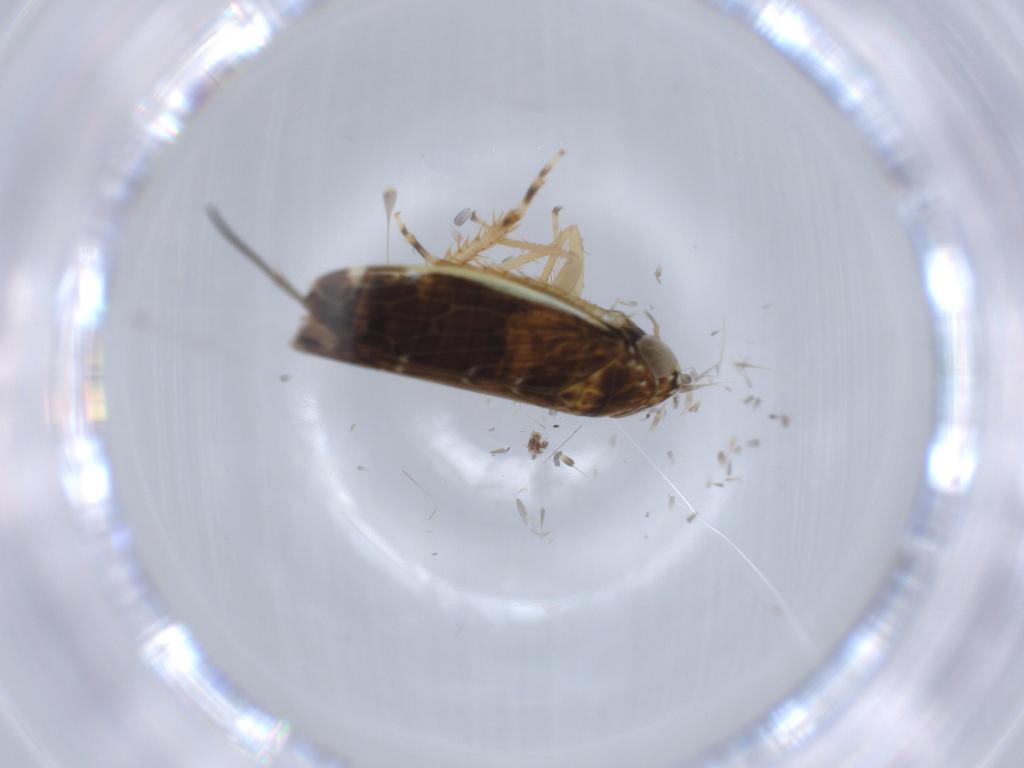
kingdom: Animalia
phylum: Arthropoda
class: Insecta
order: Hemiptera
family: Cicadellidae
